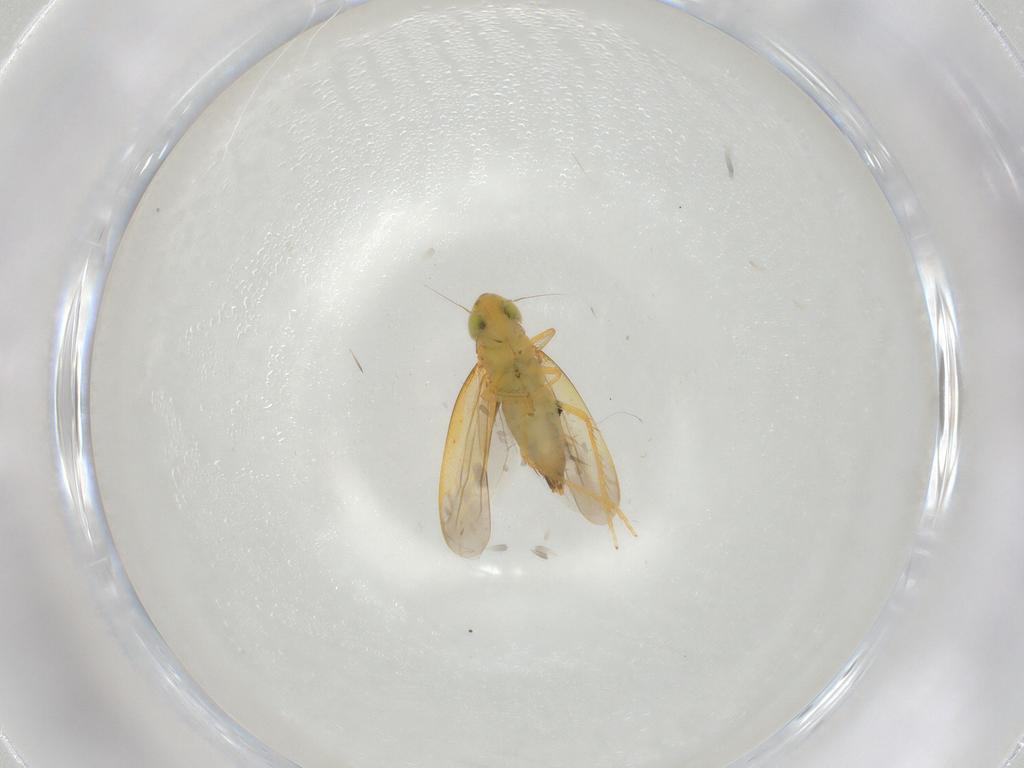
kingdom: Animalia
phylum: Arthropoda
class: Insecta
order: Hemiptera
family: Cicadellidae
